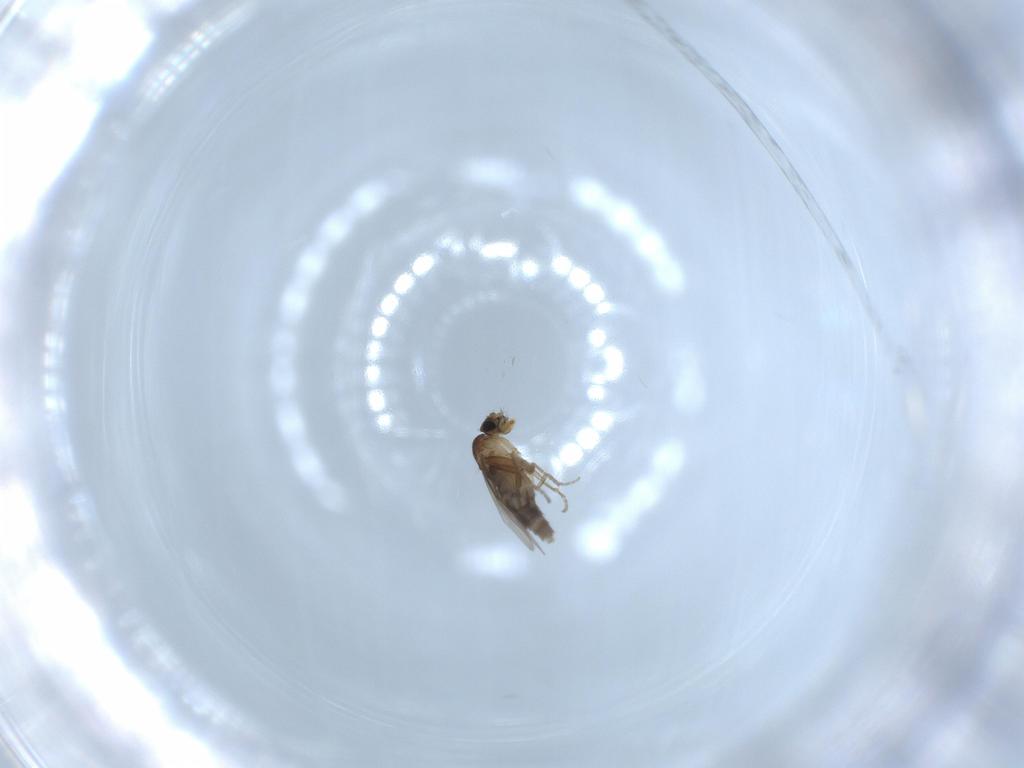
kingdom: Animalia
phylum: Arthropoda
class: Insecta
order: Diptera
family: Phoridae
